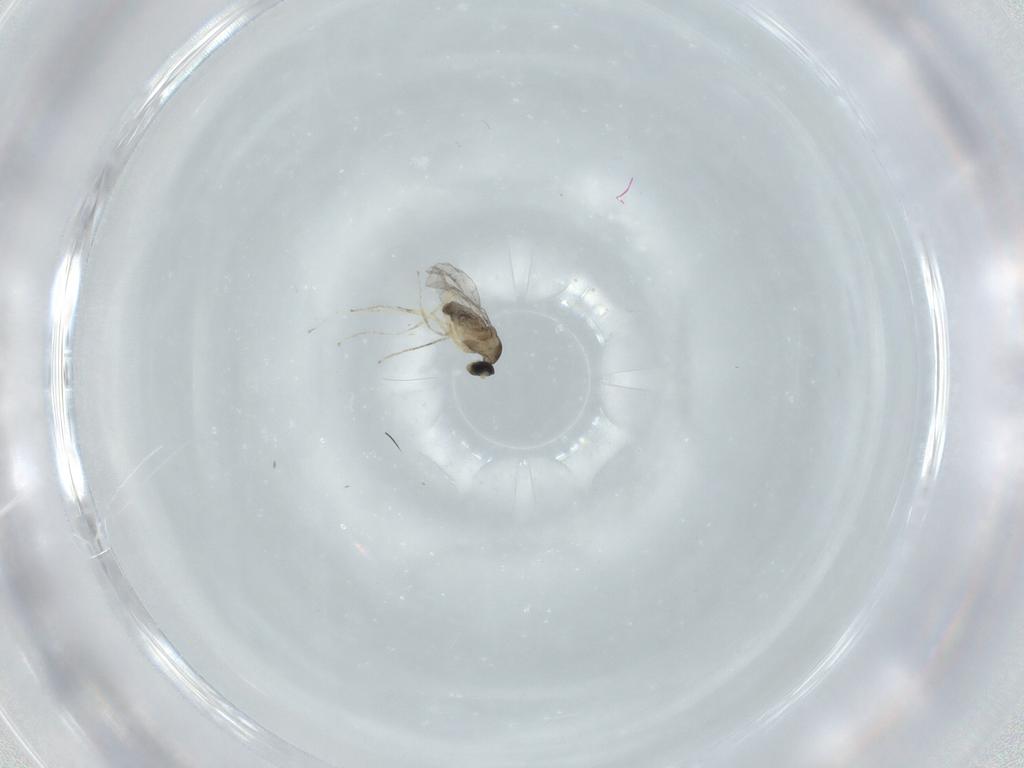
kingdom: Animalia
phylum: Arthropoda
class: Insecta
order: Diptera
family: Cecidomyiidae
